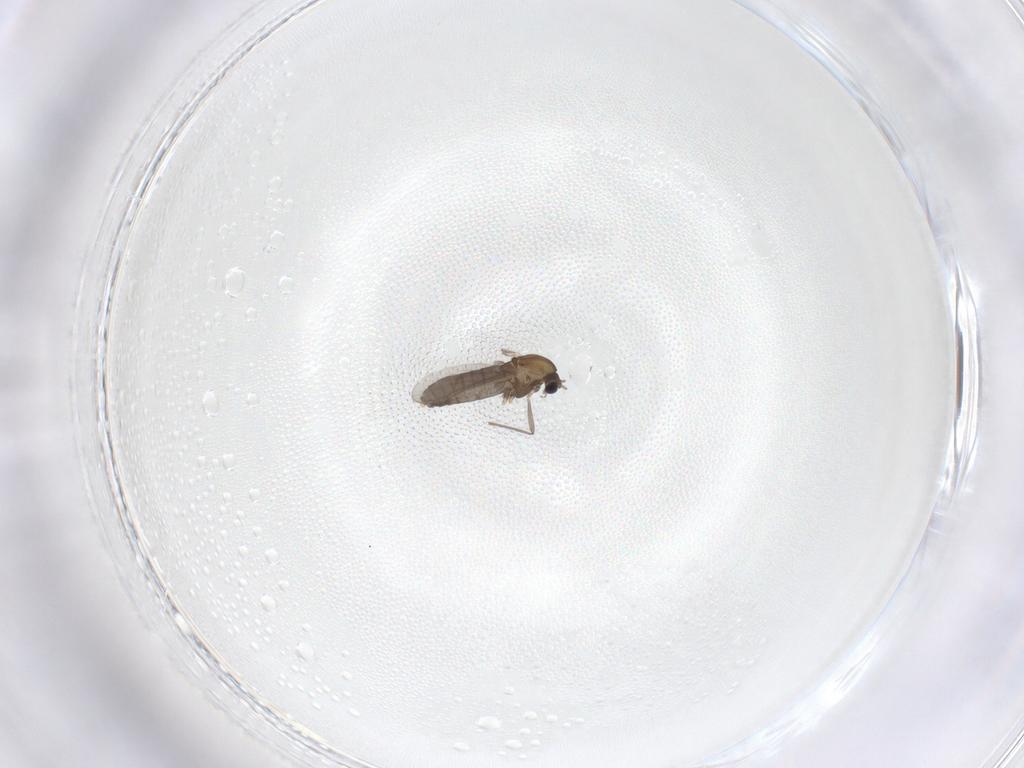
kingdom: Animalia
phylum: Arthropoda
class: Insecta
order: Diptera
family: Chironomidae
